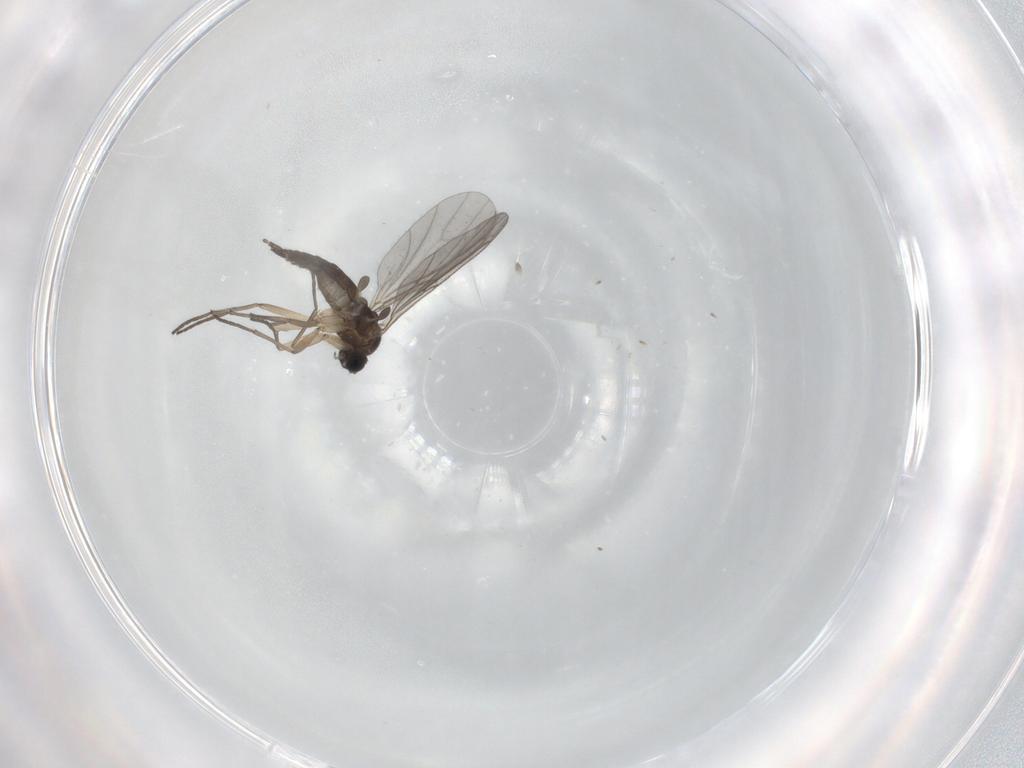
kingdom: Animalia
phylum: Arthropoda
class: Insecta
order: Diptera
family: Sciaridae
